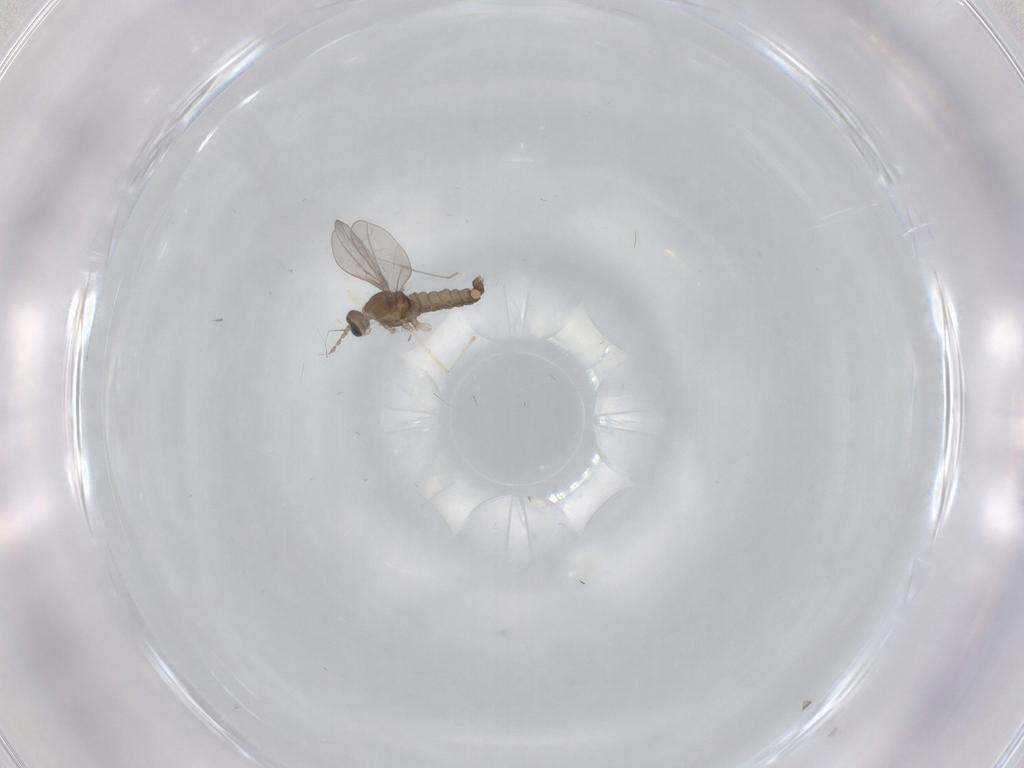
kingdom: Animalia
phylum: Arthropoda
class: Insecta
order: Diptera
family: Cecidomyiidae
